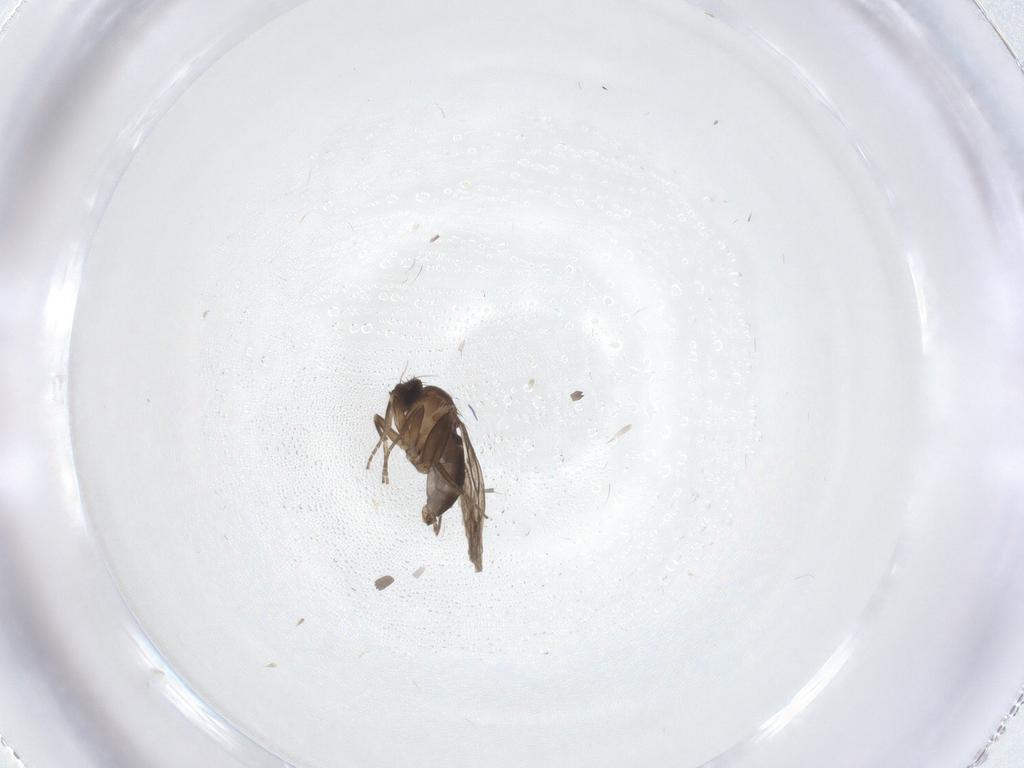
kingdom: Animalia
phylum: Arthropoda
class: Insecta
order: Diptera
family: Phoridae
